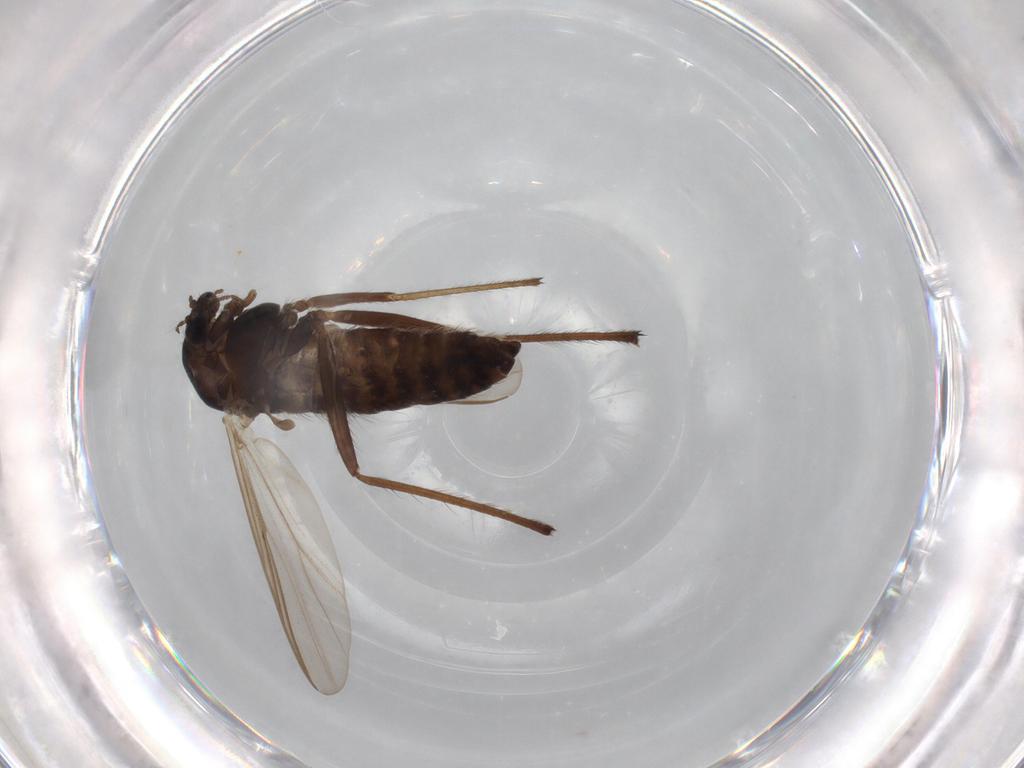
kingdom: Animalia
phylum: Arthropoda
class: Insecta
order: Diptera
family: Chironomidae
